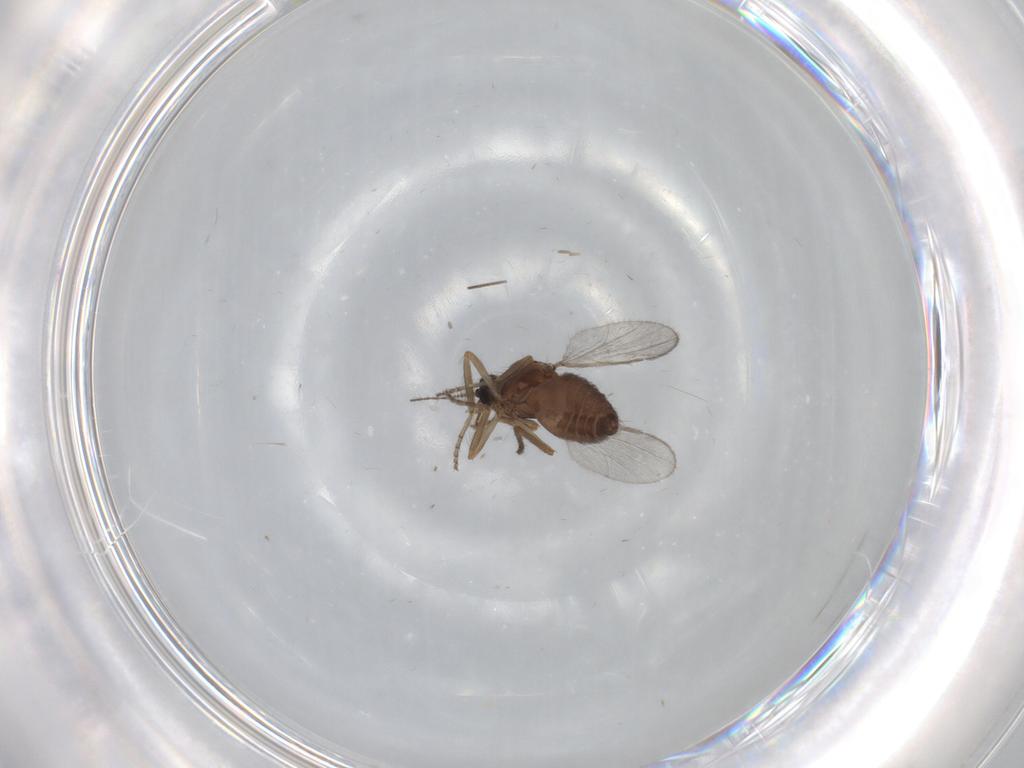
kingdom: Animalia
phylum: Arthropoda
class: Insecta
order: Diptera
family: Ceratopogonidae
